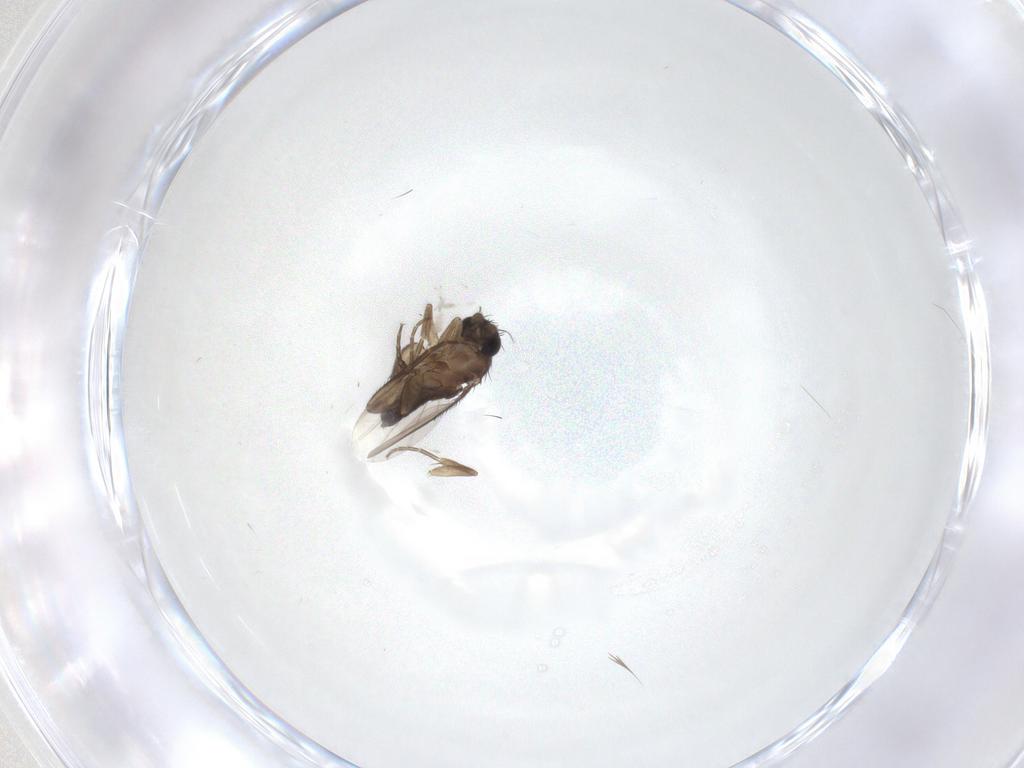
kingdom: Animalia
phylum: Arthropoda
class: Insecta
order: Diptera
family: Phoridae
